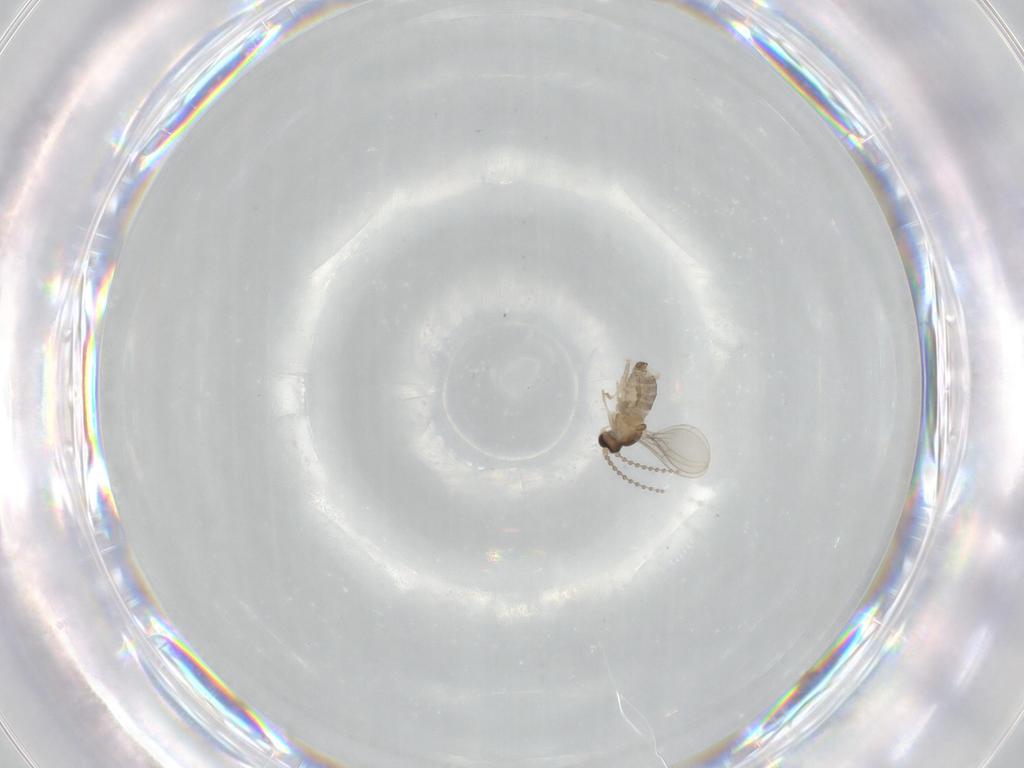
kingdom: Animalia
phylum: Arthropoda
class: Insecta
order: Diptera
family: Cecidomyiidae
